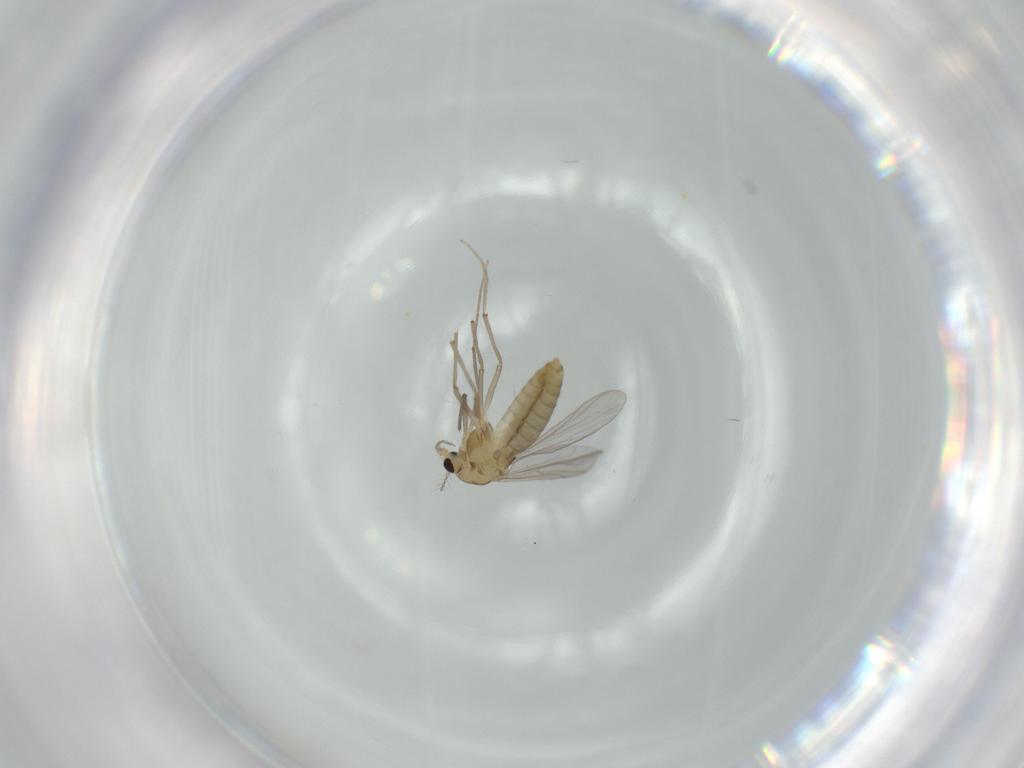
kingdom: Animalia
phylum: Arthropoda
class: Insecta
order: Diptera
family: Chironomidae
